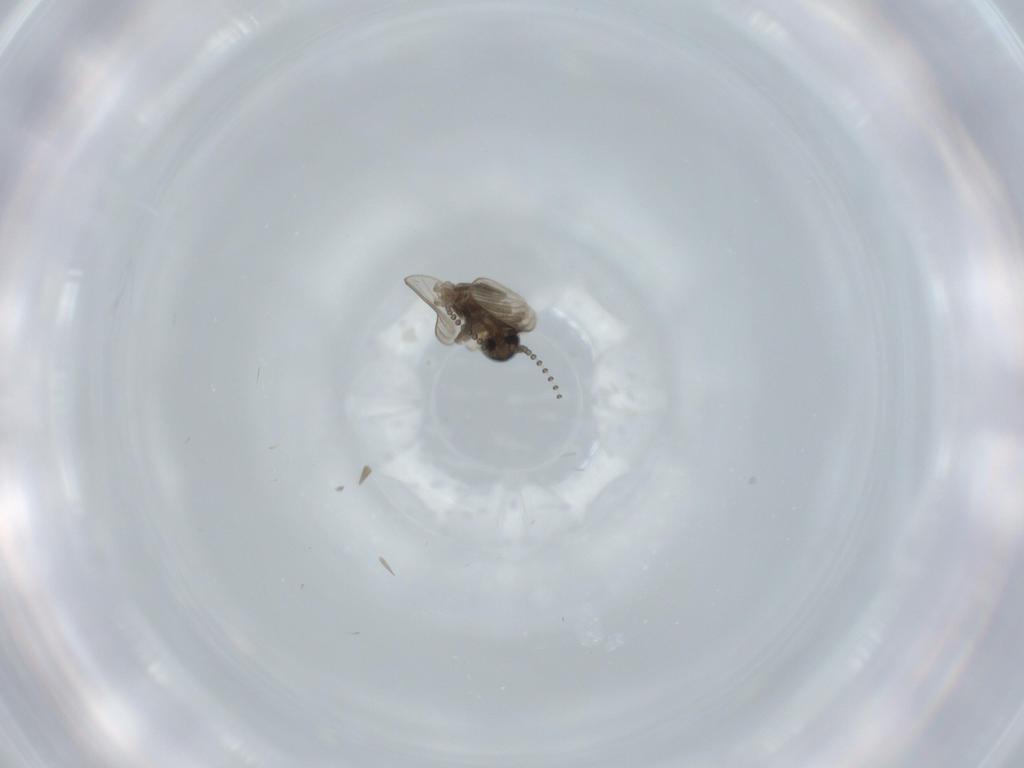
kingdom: Animalia
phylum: Arthropoda
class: Insecta
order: Diptera
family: Psychodidae
